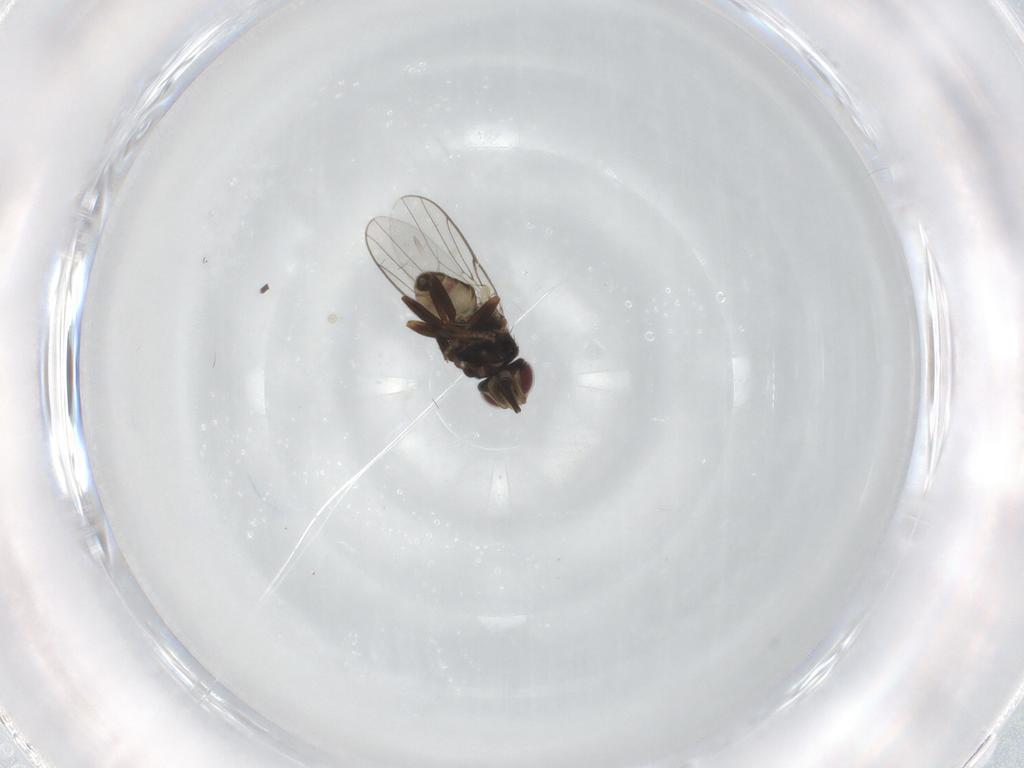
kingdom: Animalia
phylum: Arthropoda
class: Insecta
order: Diptera
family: Chloropidae
